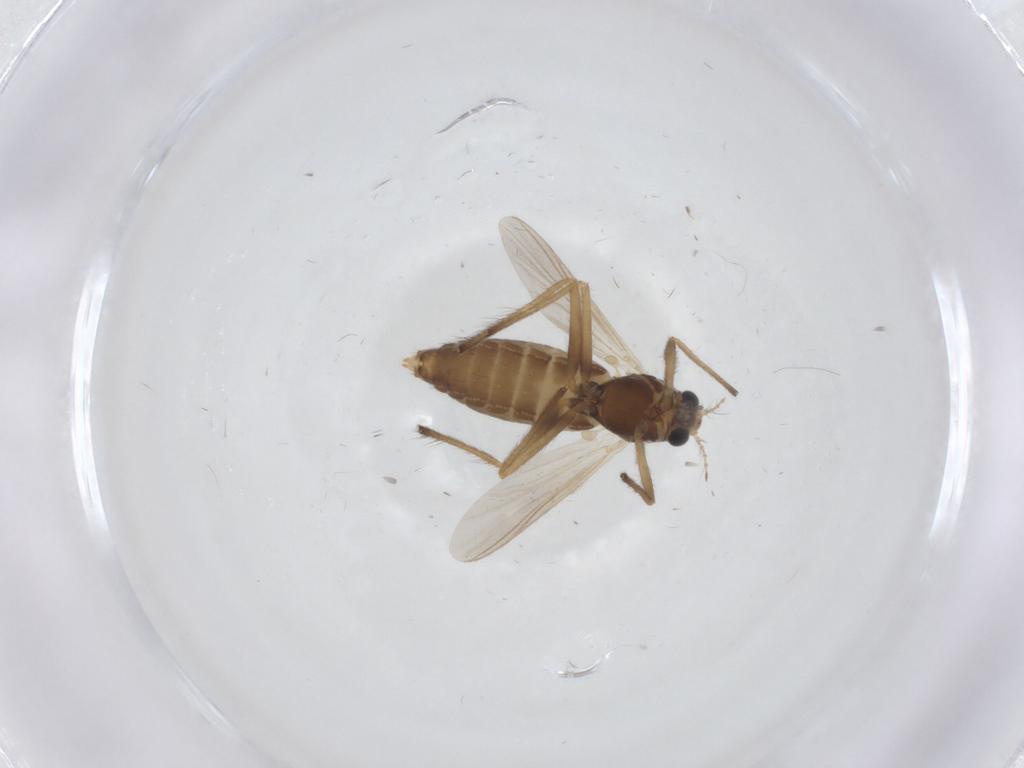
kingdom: Animalia
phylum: Arthropoda
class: Insecta
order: Diptera
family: Chironomidae
